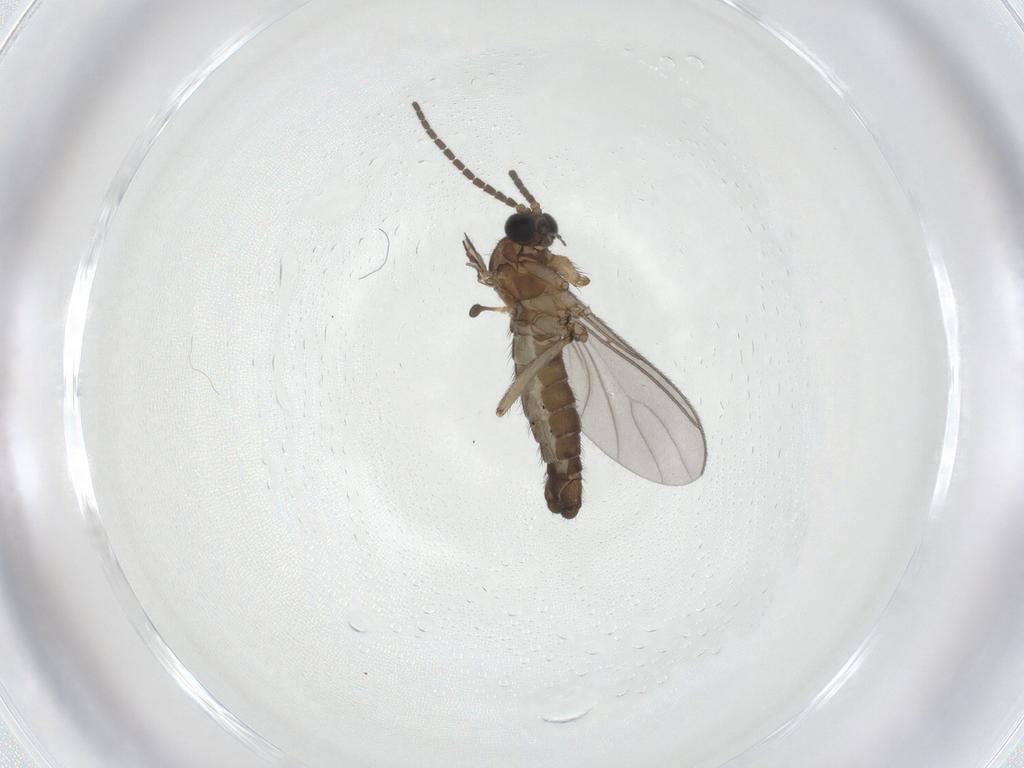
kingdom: Animalia
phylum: Arthropoda
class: Insecta
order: Diptera
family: Sciaridae
